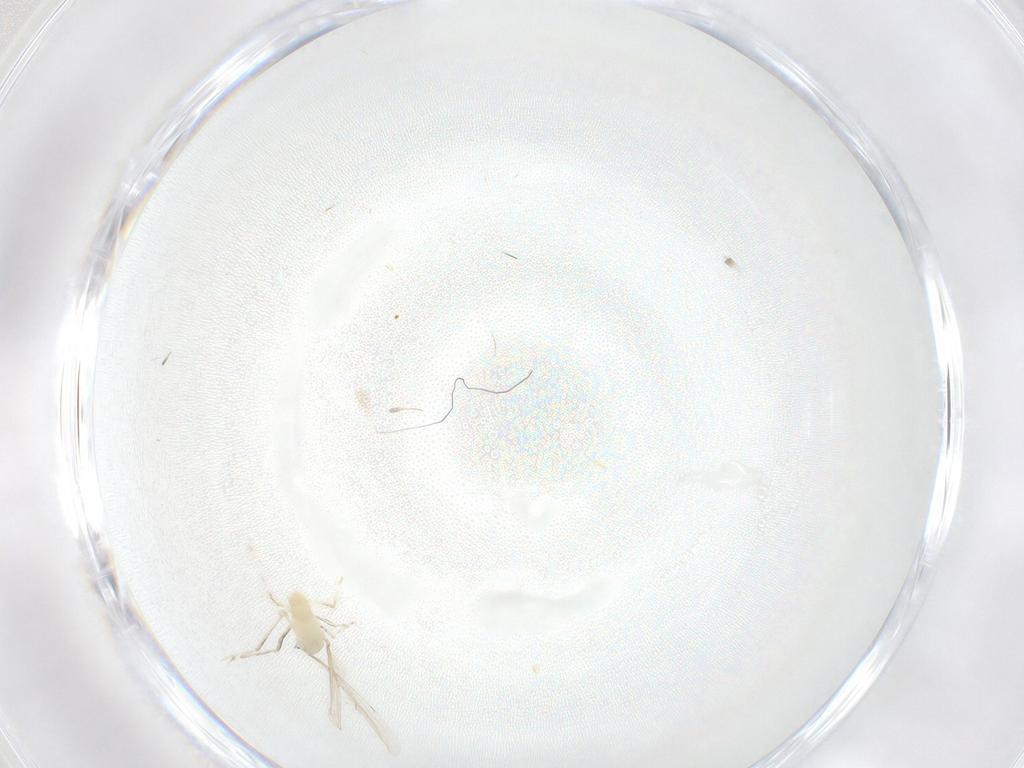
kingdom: Animalia
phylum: Arthropoda
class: Insecta
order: Diptera
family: Cecidomyiidae
